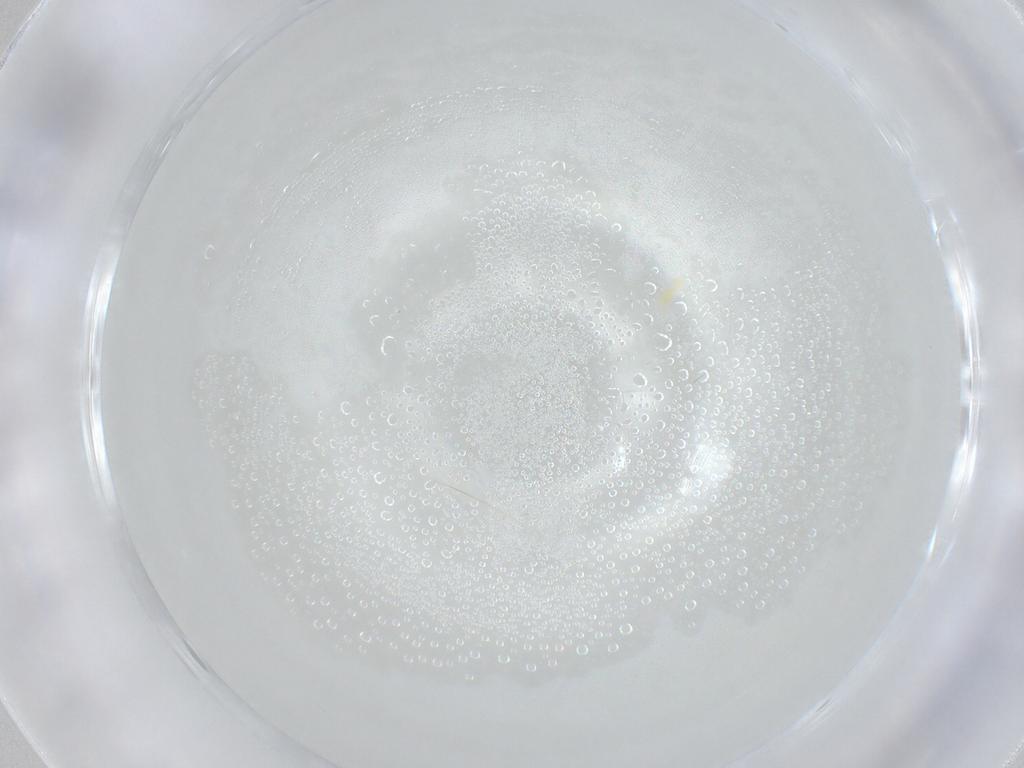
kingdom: Animalia
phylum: Arthropoda
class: Arachnida
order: Trombidiformes
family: Tetranychidae
